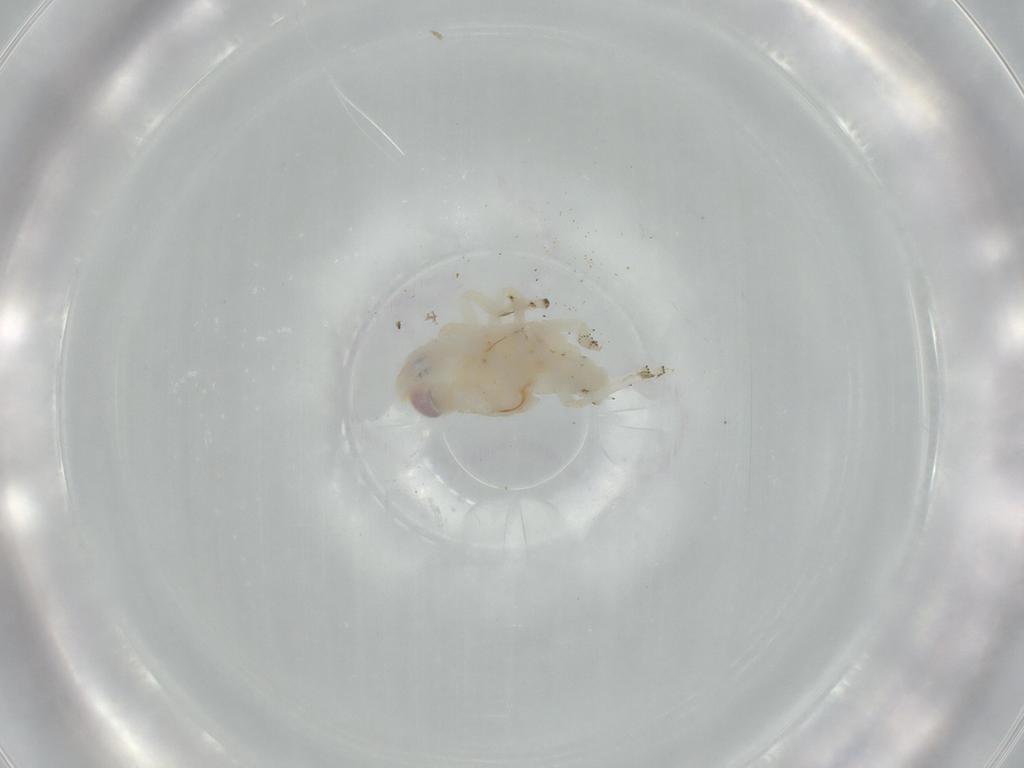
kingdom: Animalia
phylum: Arthropoda
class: Insecta
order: Hemiptera
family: Nogodinidae
